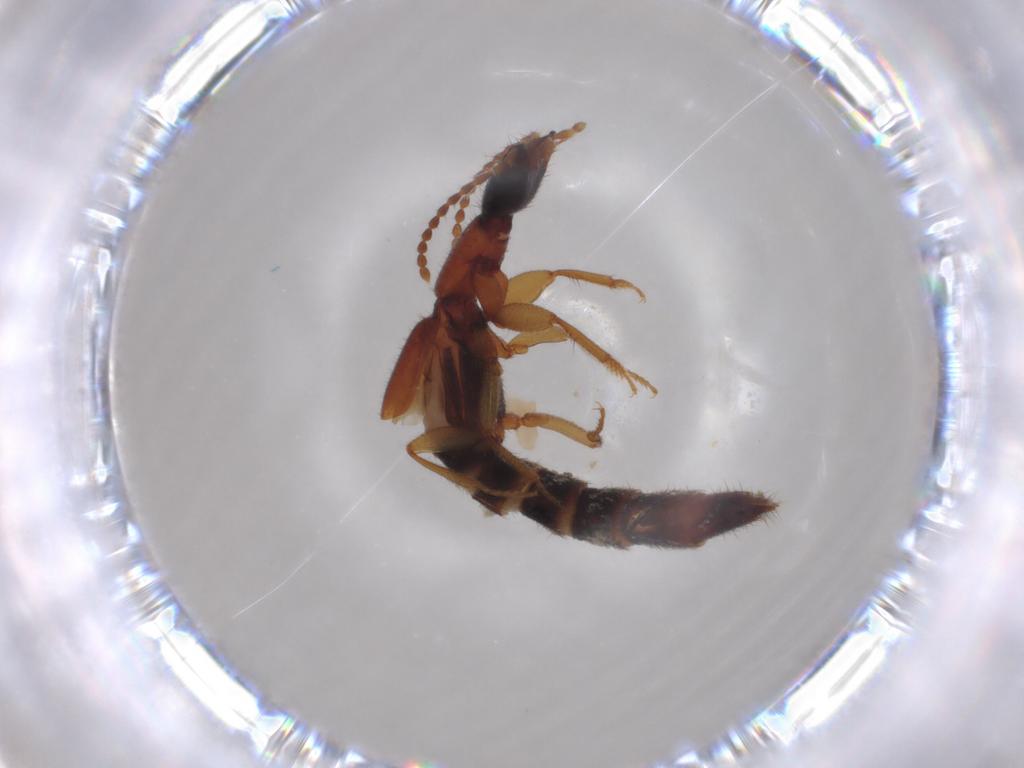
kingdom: Animalia
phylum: Arthropoda
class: Insecta
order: Coleoptera
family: Staphylinidae
